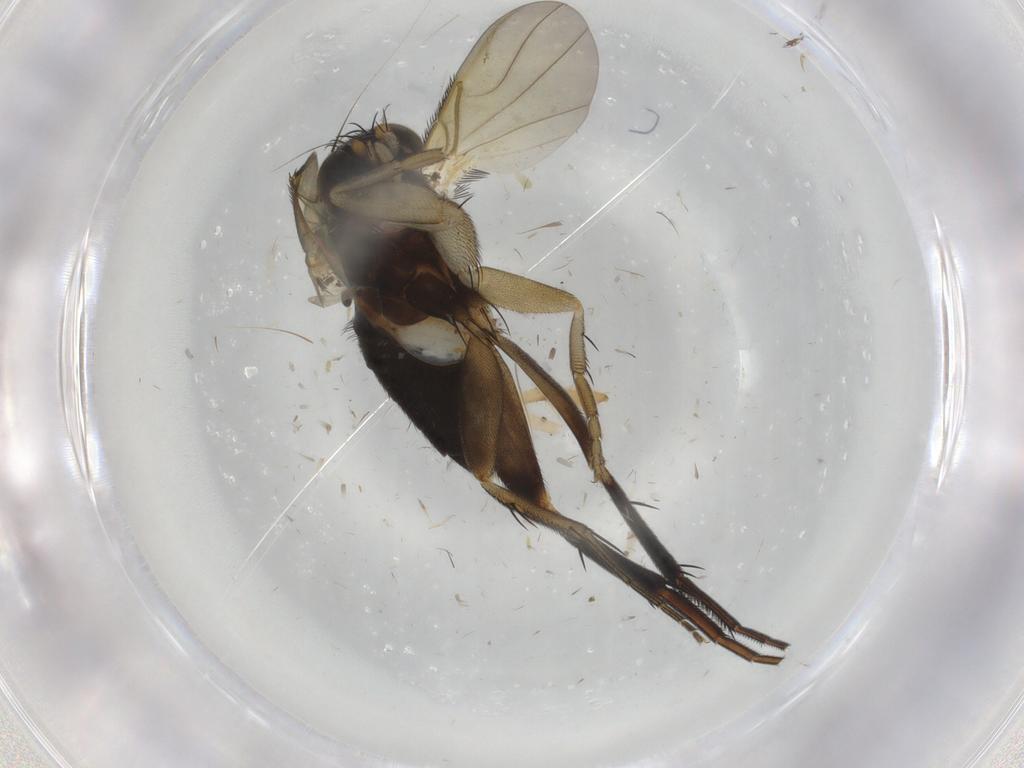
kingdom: Animalia
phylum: Arthropoda
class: Insecta
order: Diptera
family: Phoridae
